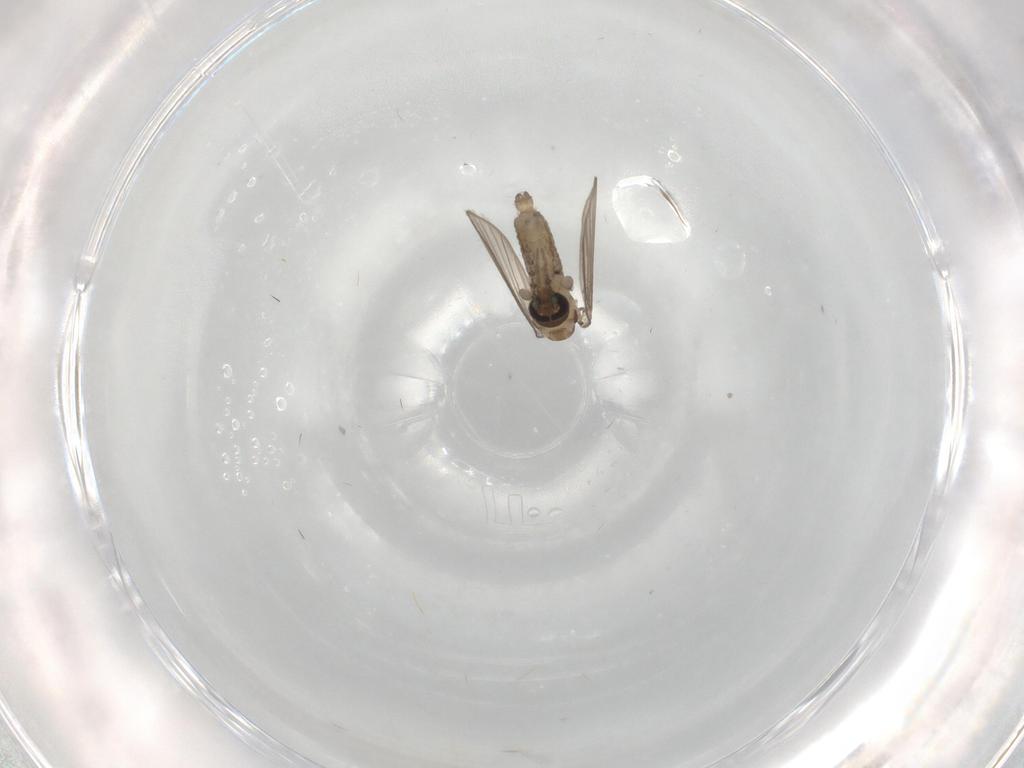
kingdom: Animalia
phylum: Arthropoda
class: Insecta
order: Diptera
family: Psychodidae
